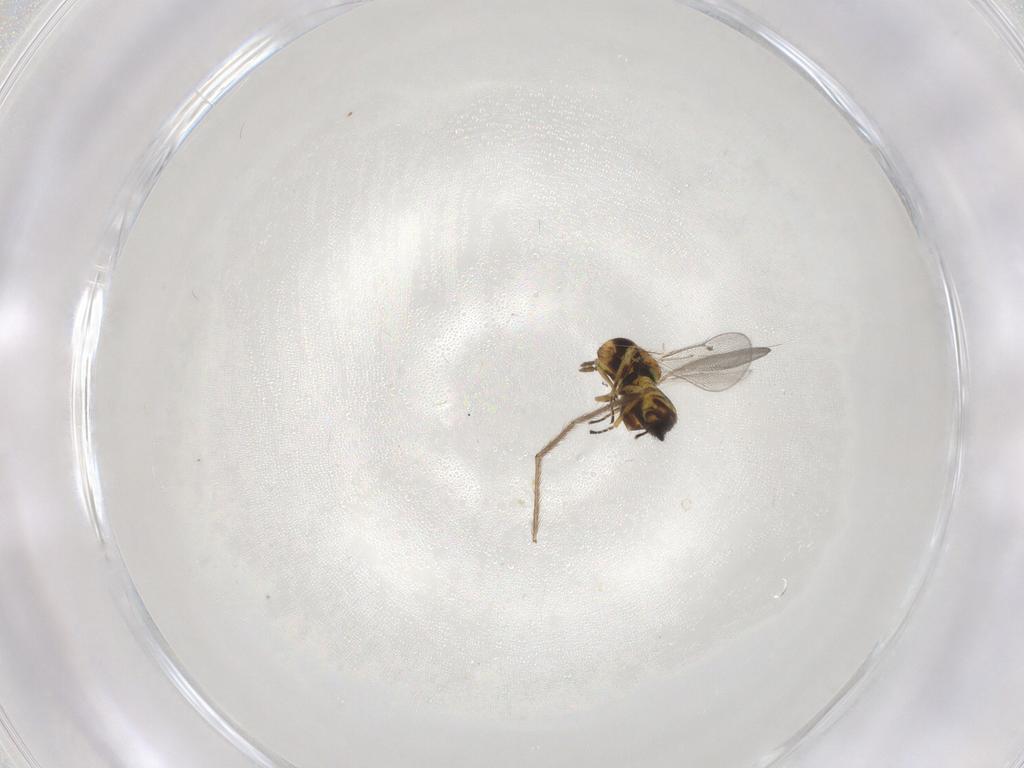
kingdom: Animalia
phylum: Arthropoda
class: Insecta
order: Hymenoptera
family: Eulophidae
